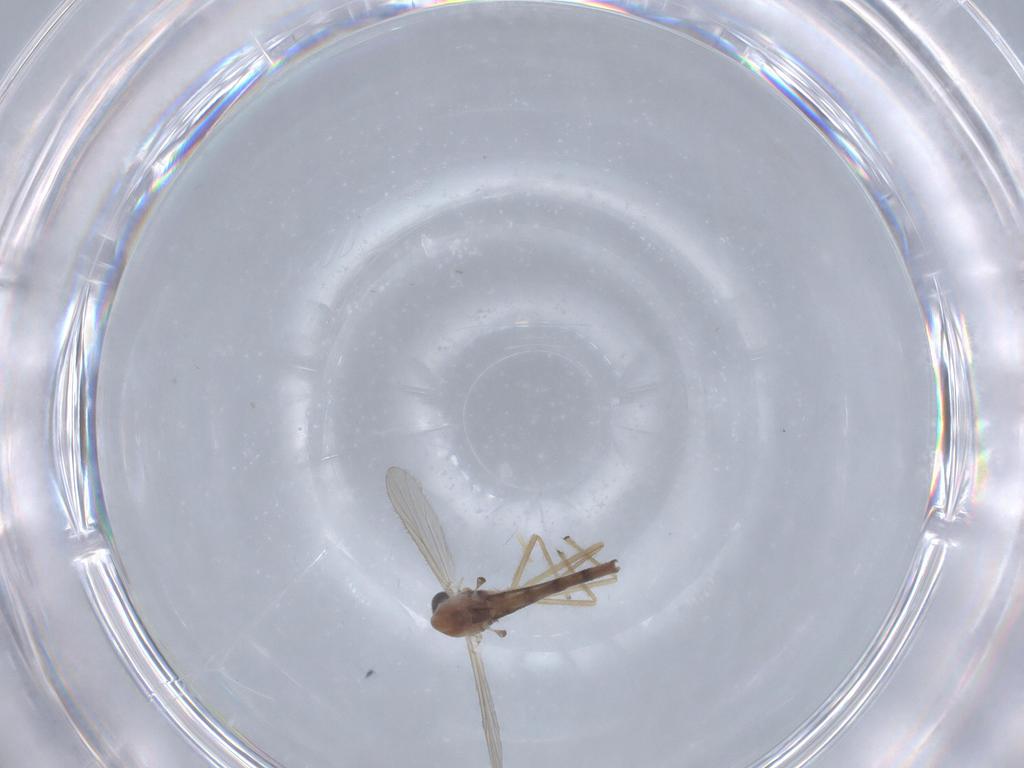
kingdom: Animalia
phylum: Arthropoda
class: Insecta
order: Diptera
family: Chironomidae
